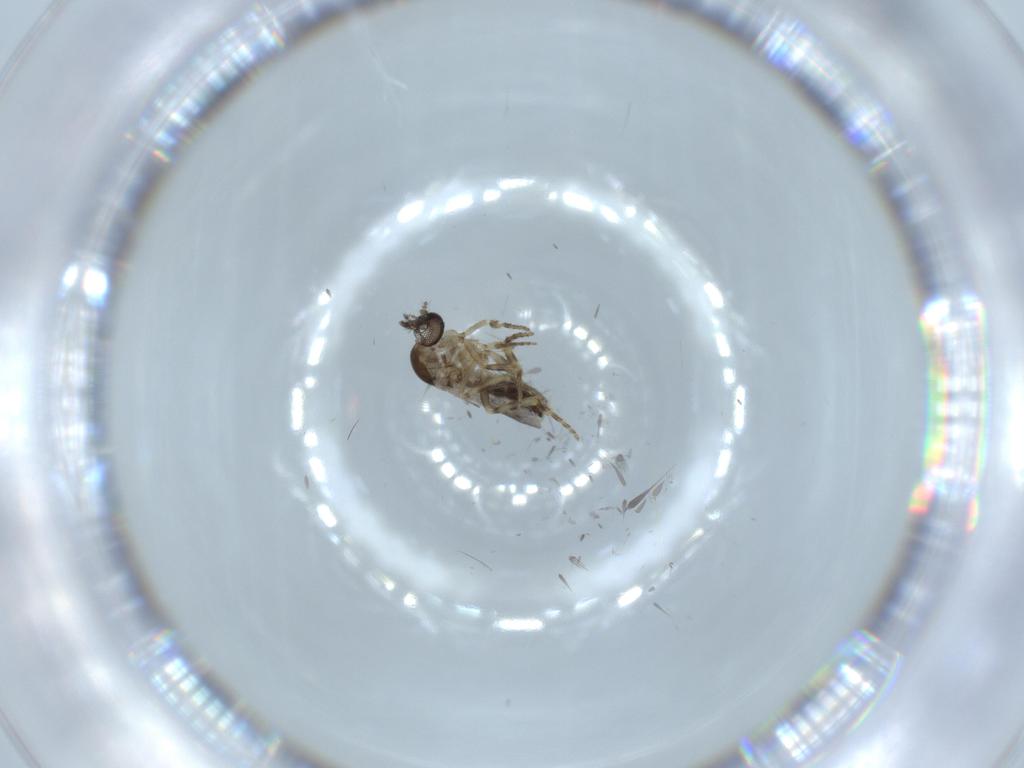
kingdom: Animalia
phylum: Arthropoda
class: Insecta
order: Diptera
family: Ceratopogonidae
